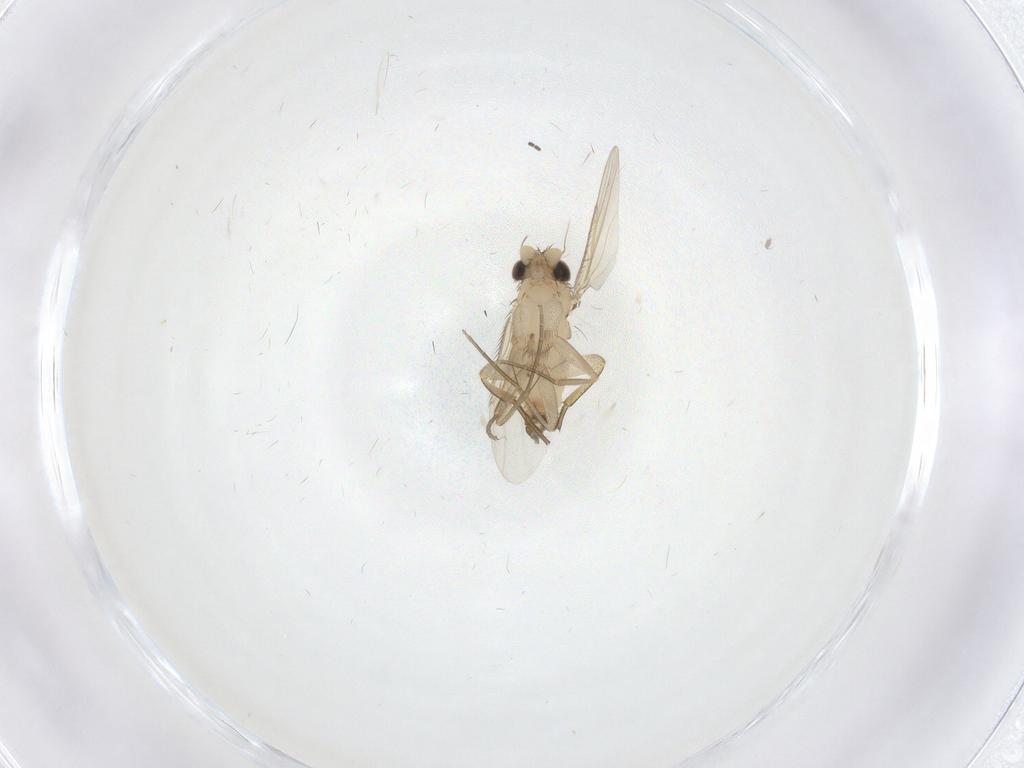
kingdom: Animalia
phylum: Arthropoda
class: Insecta
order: Diptera
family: Phoridae
